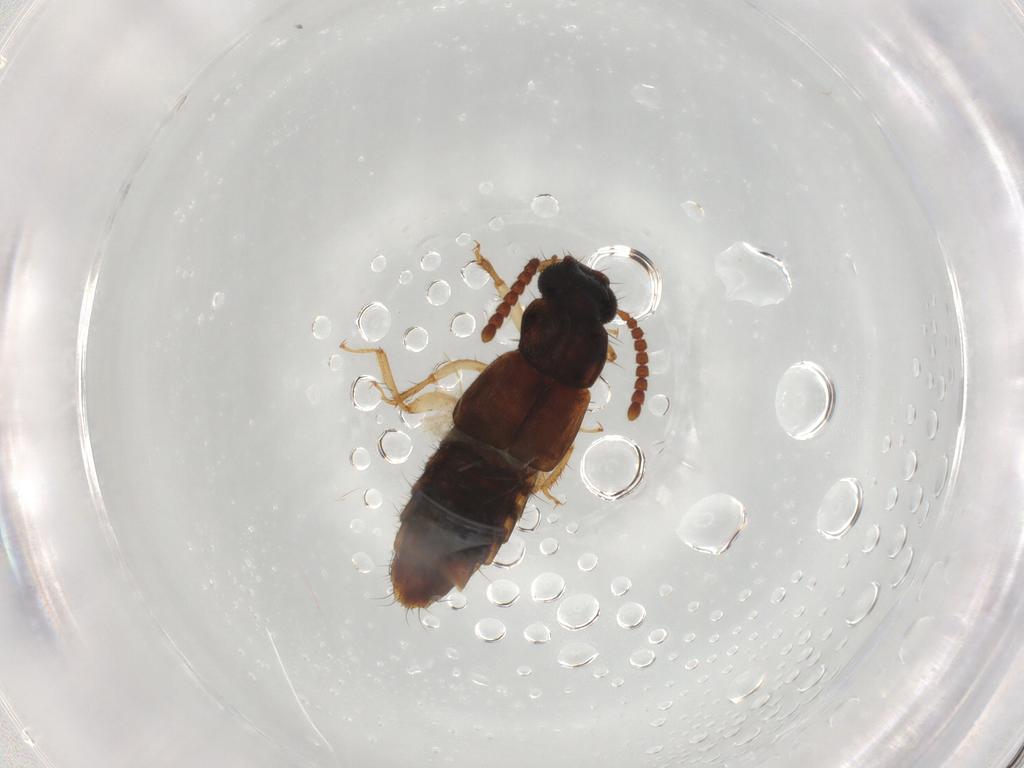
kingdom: Animalia
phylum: Arthropoda
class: Insecta
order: Coleoptera
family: Staphylinidae
